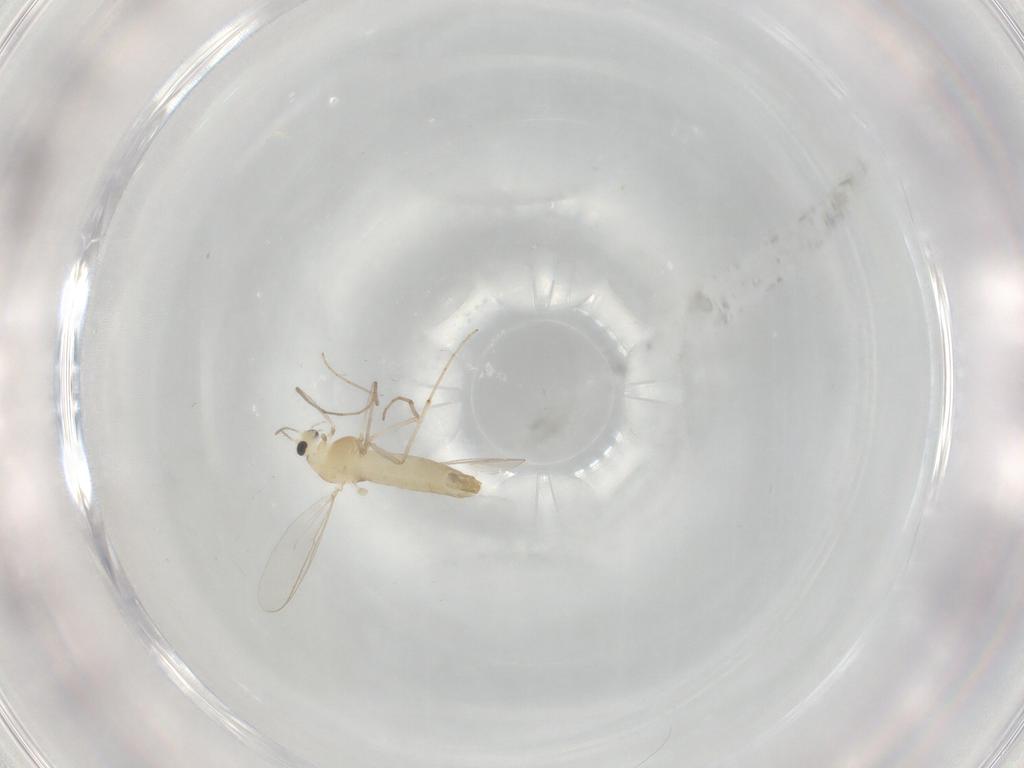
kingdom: Animalia
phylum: Arthropoda
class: Insecta
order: Diptera
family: Chironomidae
